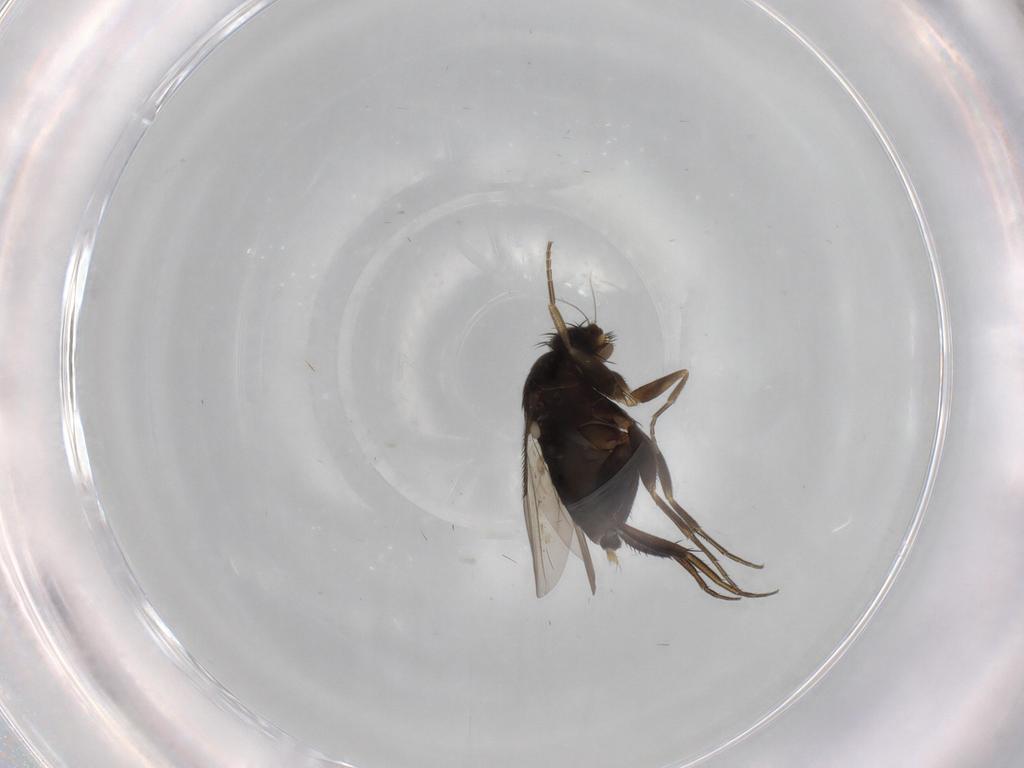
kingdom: Animalia
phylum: Arthropoda
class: Insecta
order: Diptera
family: Phoridae
